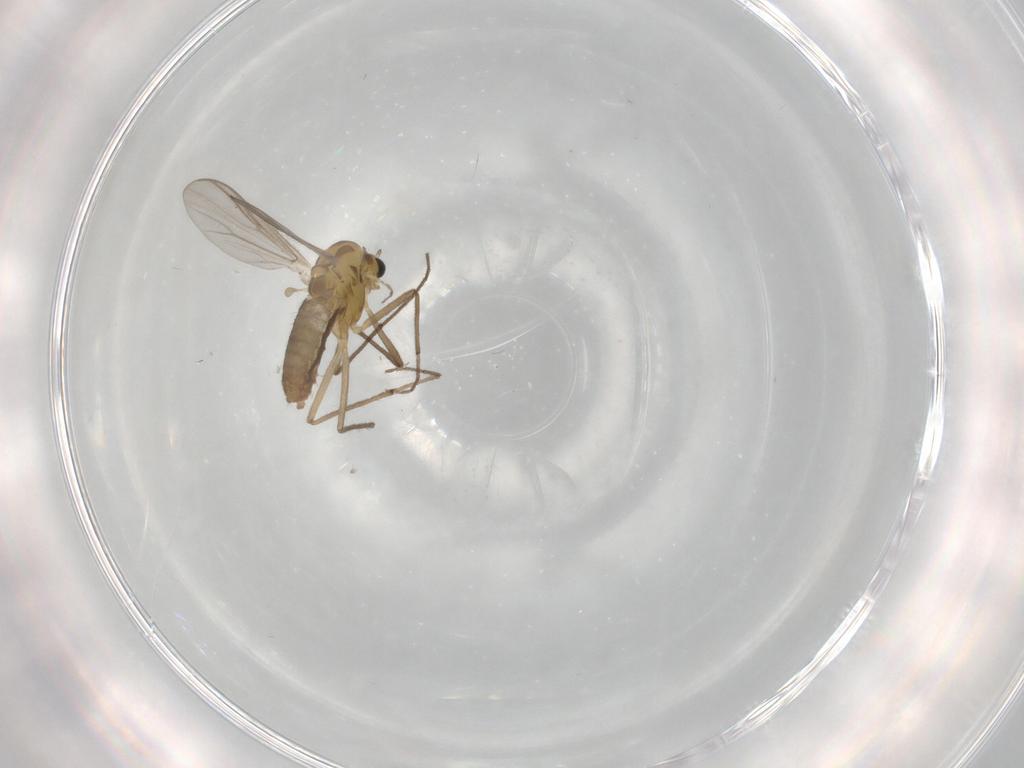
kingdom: Animalia
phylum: Arthropoda
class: Insecta
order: Diptera
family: Chironomidae
